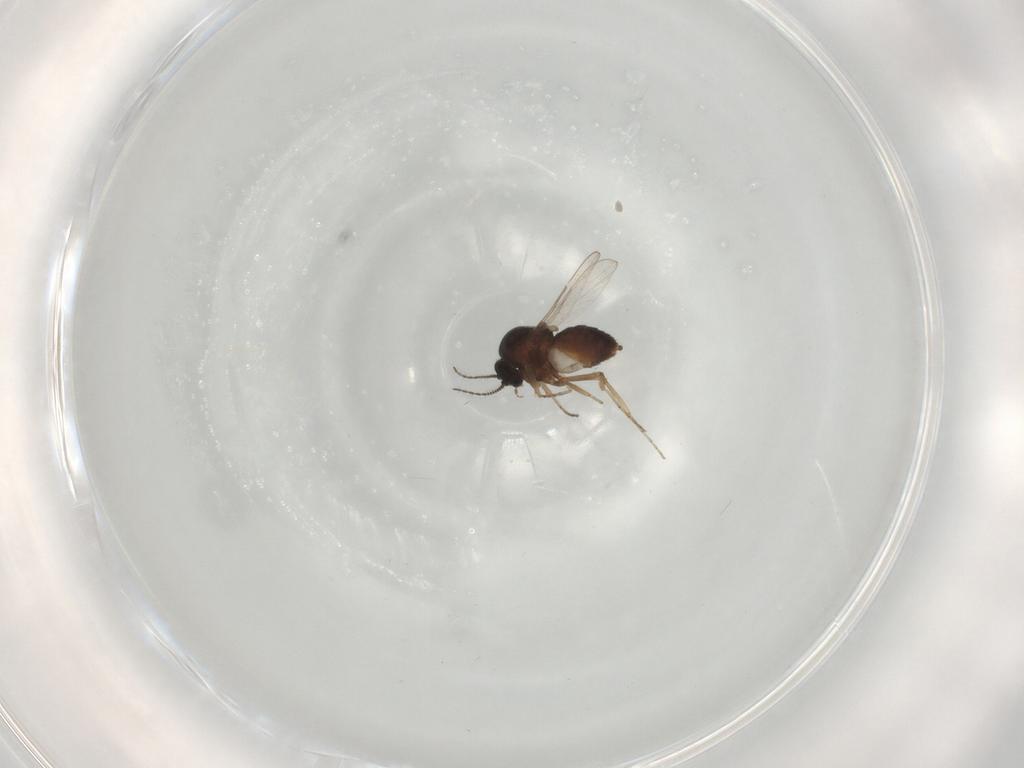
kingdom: Animalia
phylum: Arthropoda
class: Insecta
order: Diptera
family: Ceratopogonidae
